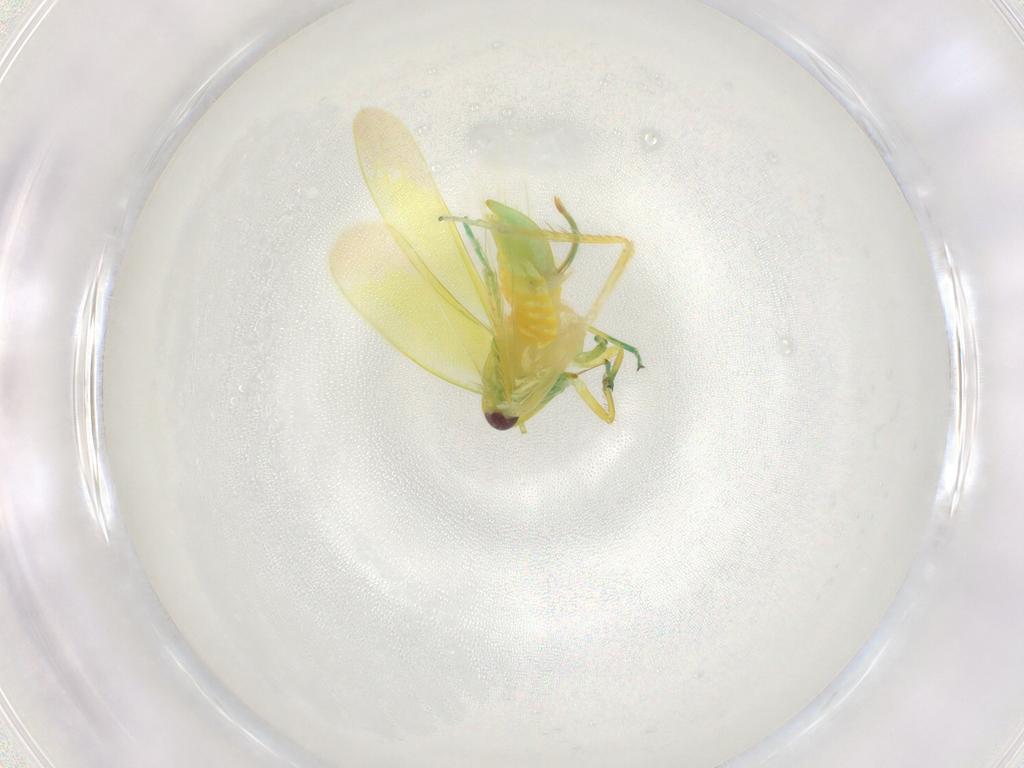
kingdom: Animalia
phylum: Arthropoda
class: Insecta
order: Hemiptera
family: Cicadellidae
